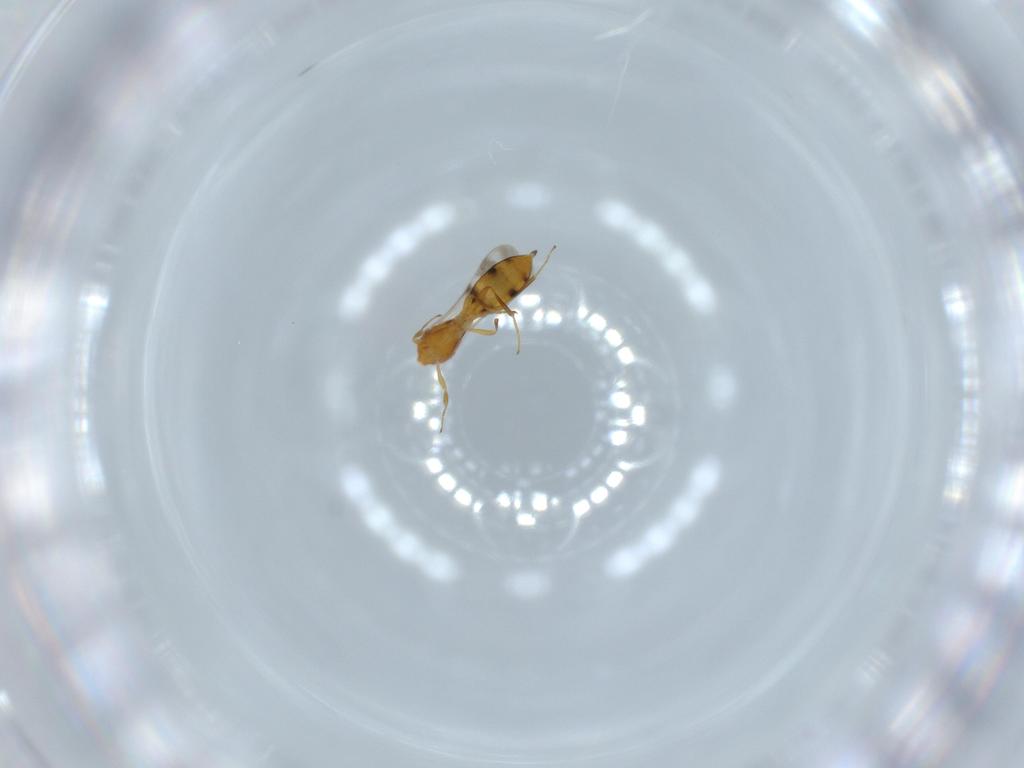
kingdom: Animalia
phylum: Arthropoda
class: Insecta
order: Hymenoptera
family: Scelionidae
